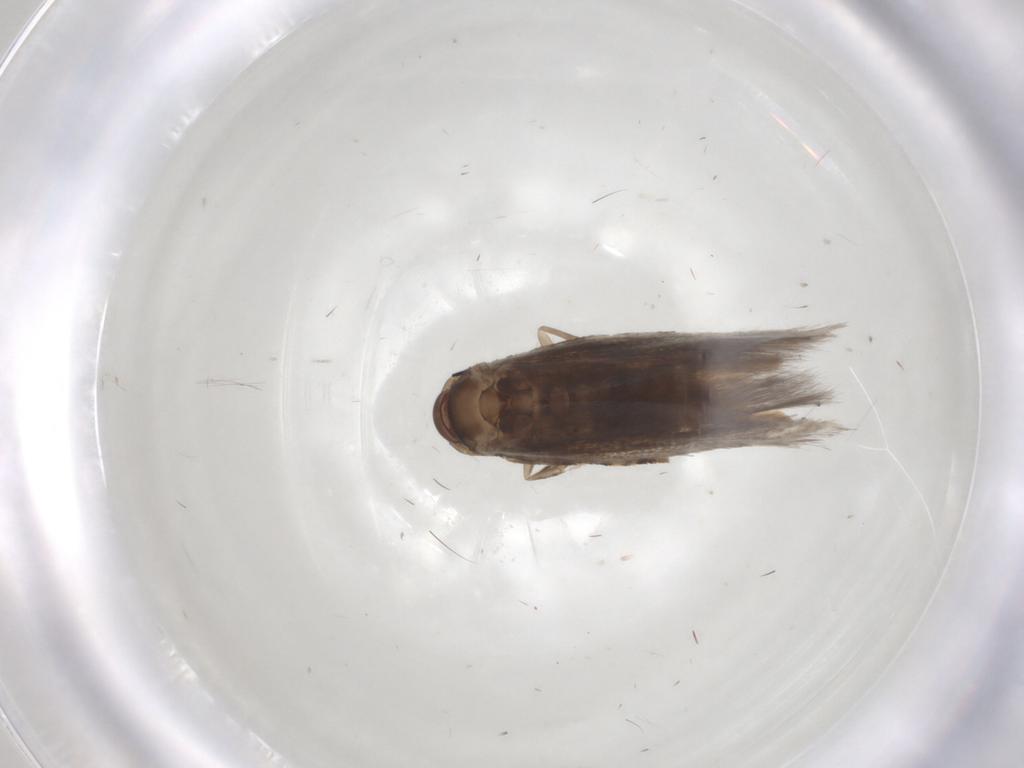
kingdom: Animalia
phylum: Arthropoda
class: Insecta
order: Lepidoptera
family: Elachistidae
